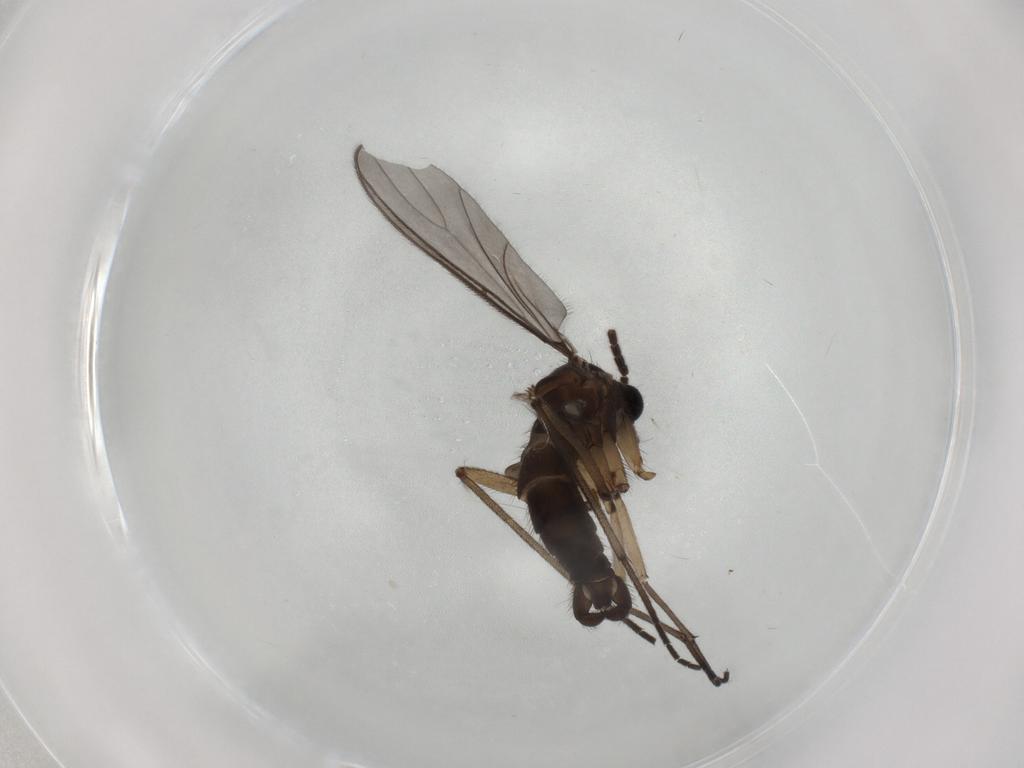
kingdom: Animalia
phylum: Arthropoda
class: Insecta
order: Diptera
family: Sciaridae
